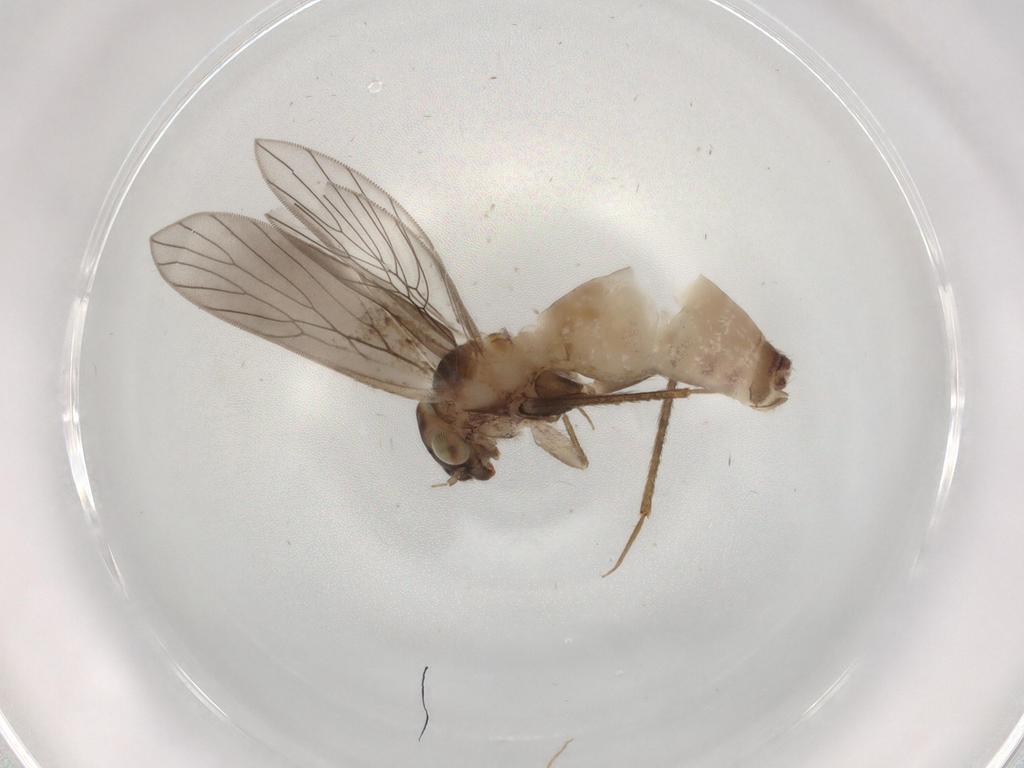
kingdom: Animalia
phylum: Arthropoda
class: Insecta
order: Psocodea
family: Lepidopsocidae
